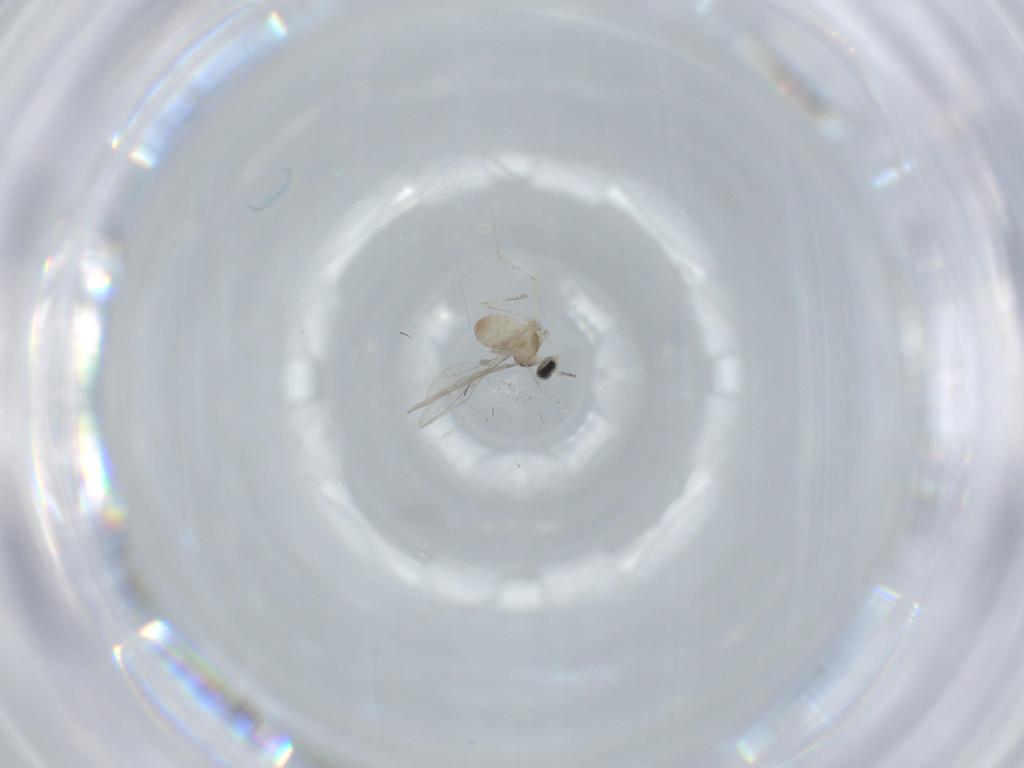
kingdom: Animalia
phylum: Arthropoda
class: Insecta
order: Diptera
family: Cecidomyiidae
